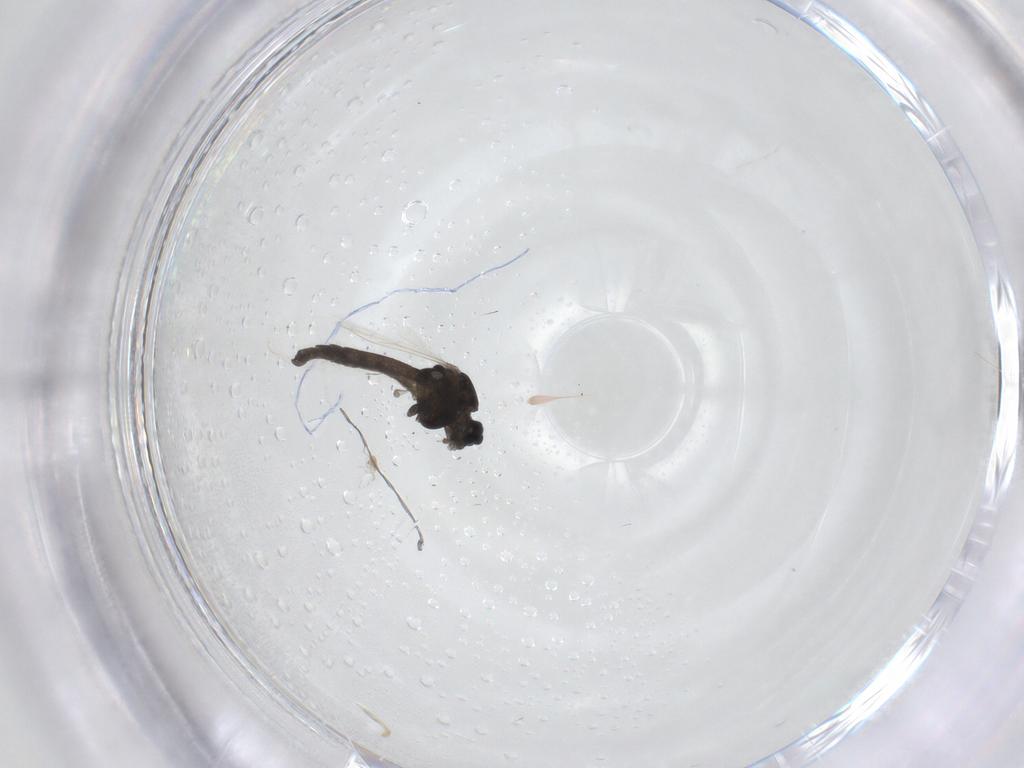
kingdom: Animalia
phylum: Arthropoda
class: Insecta
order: Diptera
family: Chironomidae
